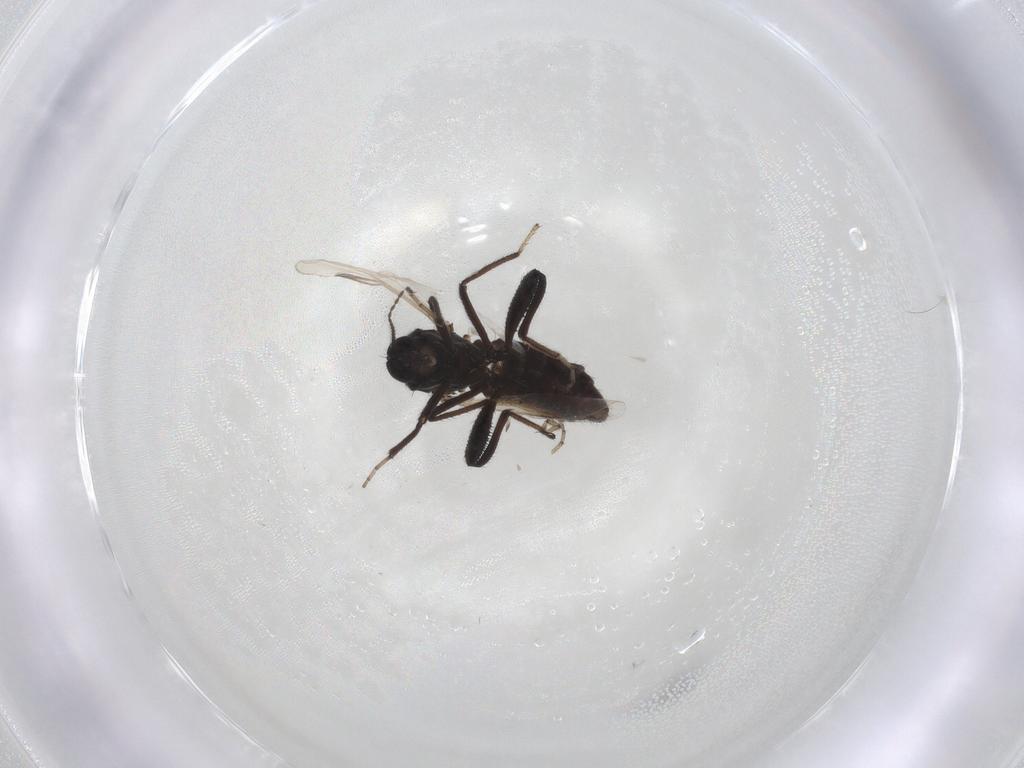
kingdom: Animalia
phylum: Arthropoda
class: Insecta
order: Diptera
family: Ceratopogonidae
